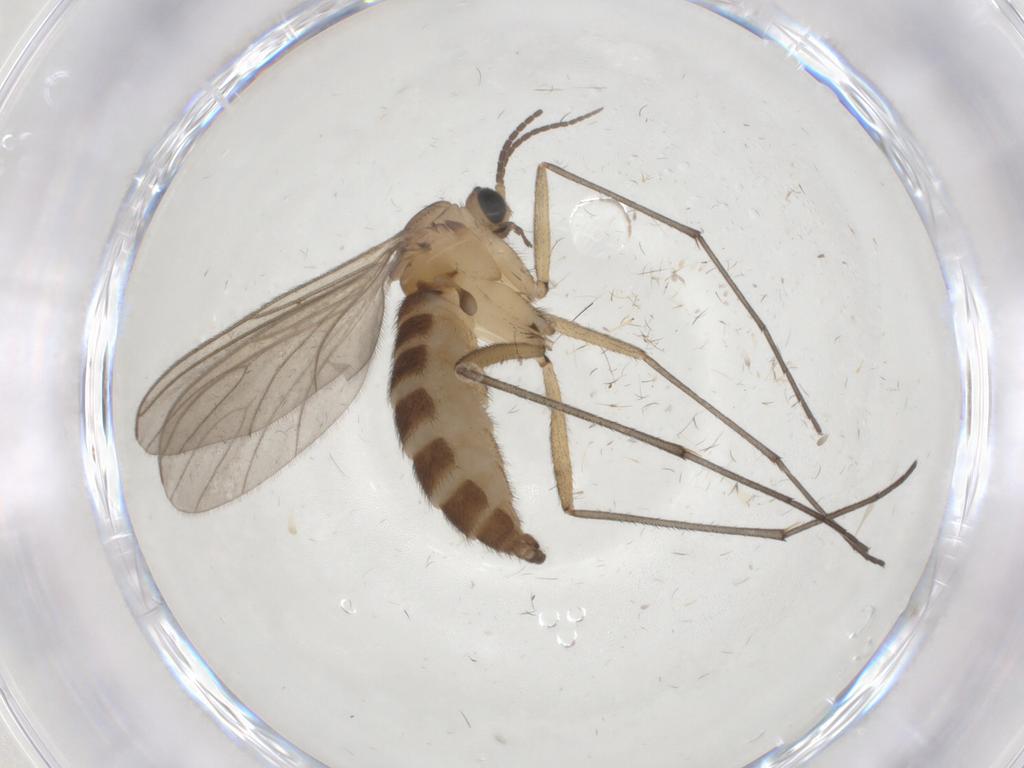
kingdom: Animalia
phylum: Arthropoda
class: Insecta
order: Diptera
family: Sciaridae
